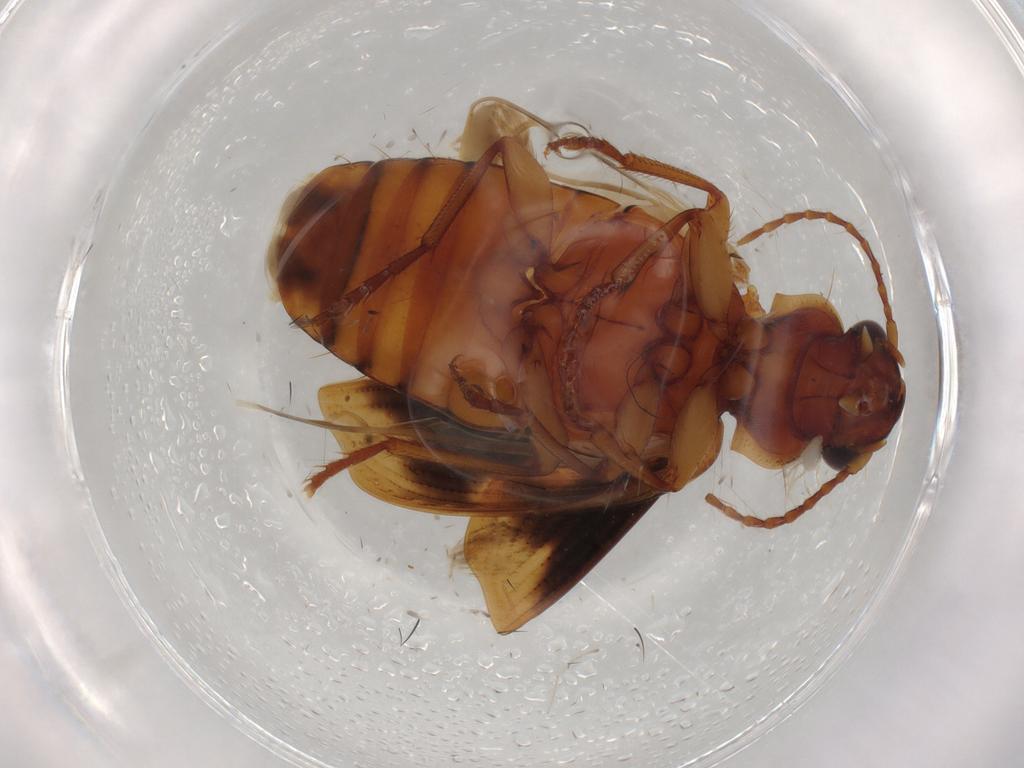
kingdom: Animalia
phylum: Arthropoda
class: Insecta
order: Coleoptera
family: Carabidae
